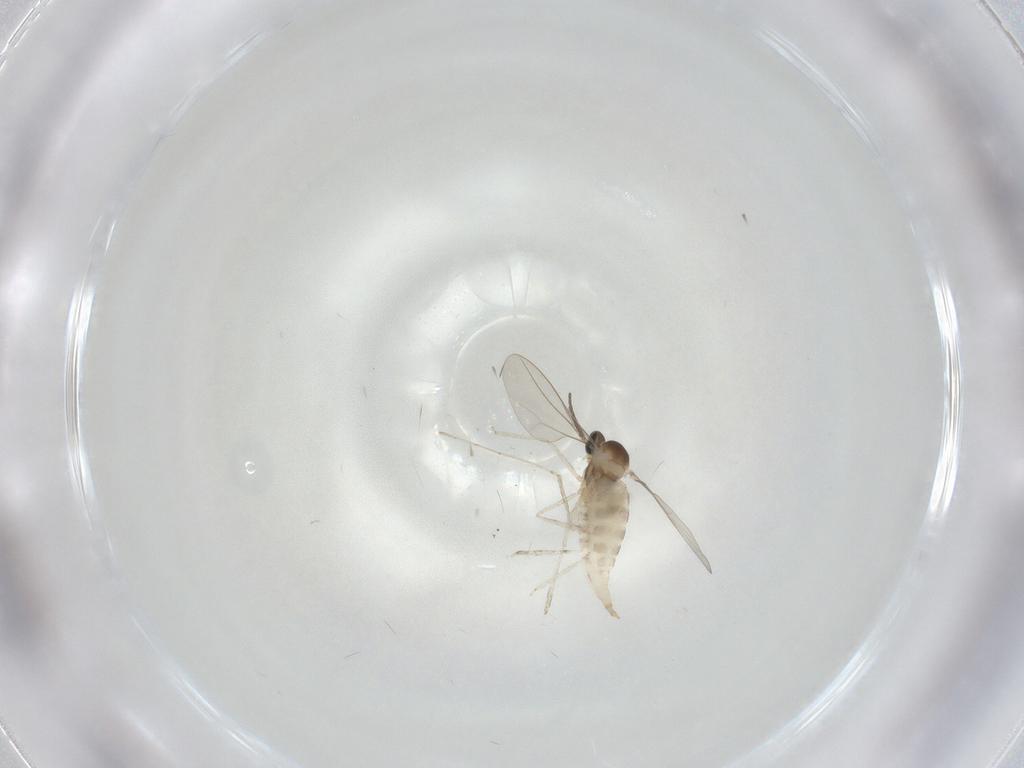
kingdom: Animalia
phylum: Arthropoda
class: Insecta
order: Diptera
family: Cecidomyiidae
